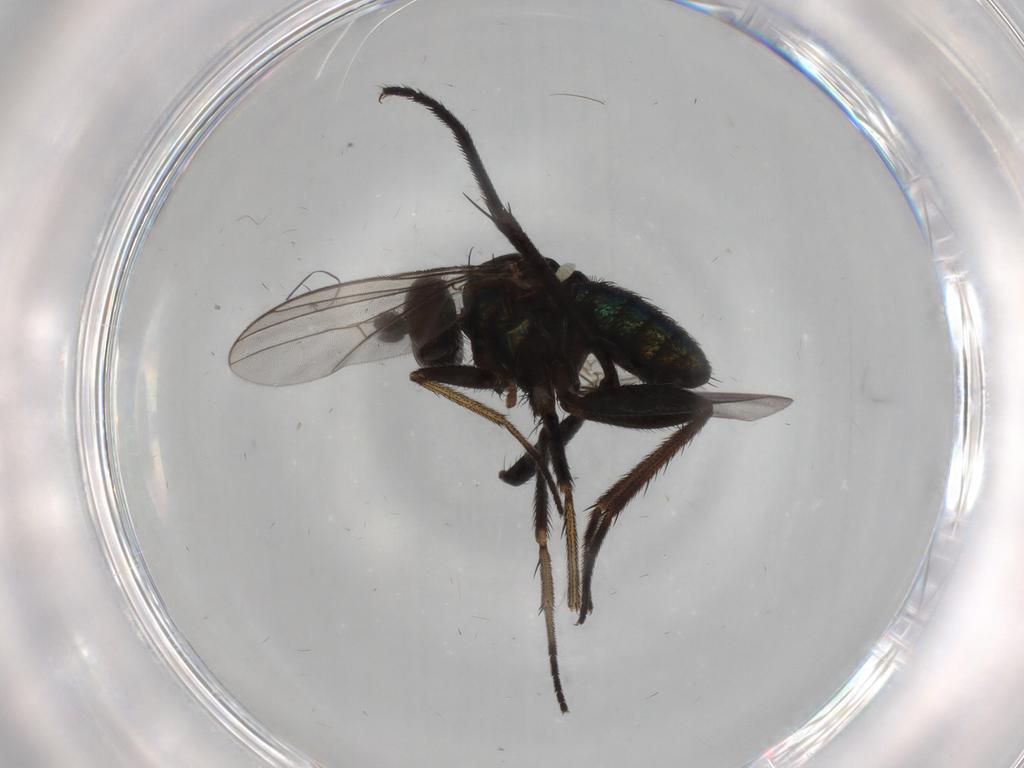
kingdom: Animalia
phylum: Arthropoda
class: Insecta
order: Diptera
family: Dolichopodidae
